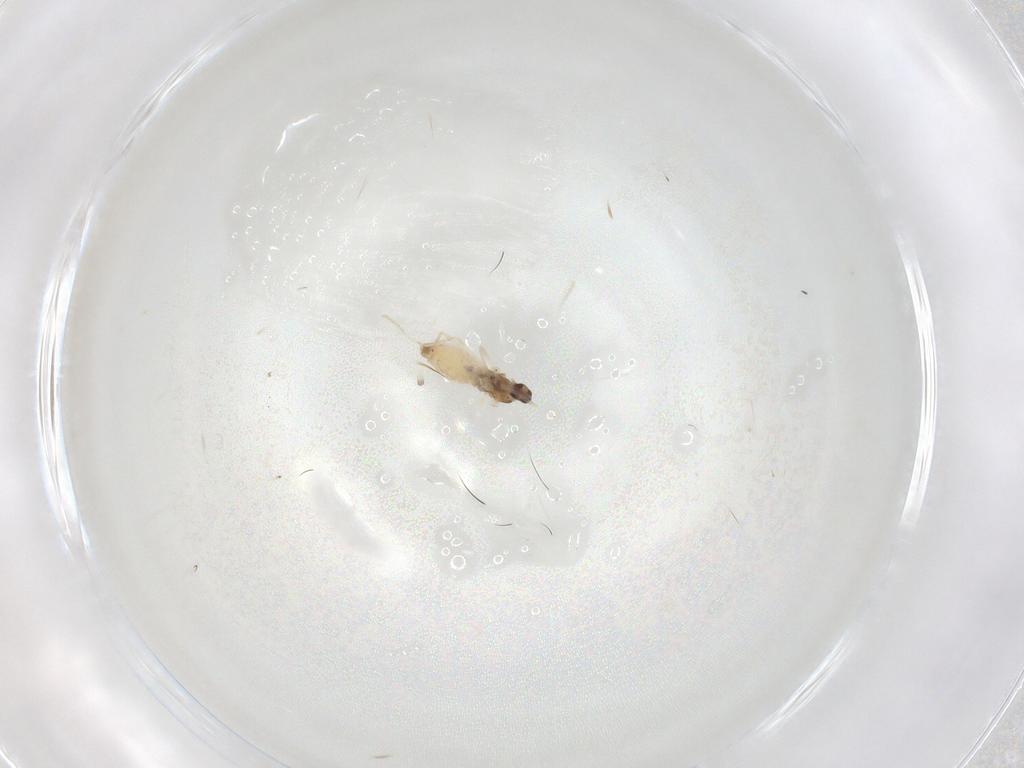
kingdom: Animalia
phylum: Arthropoda
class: Insecta
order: Diptera
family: Cecidomyiidae
